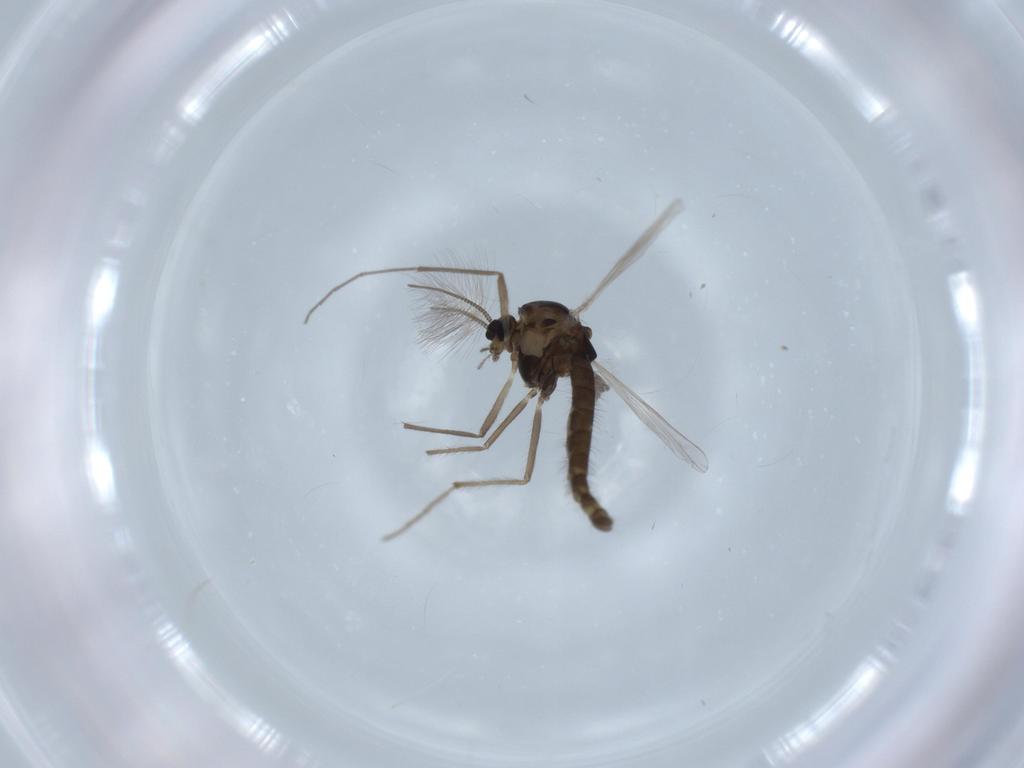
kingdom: Animalia
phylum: Arthropoda
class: Insecta
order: Diptera
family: Chironomidae
